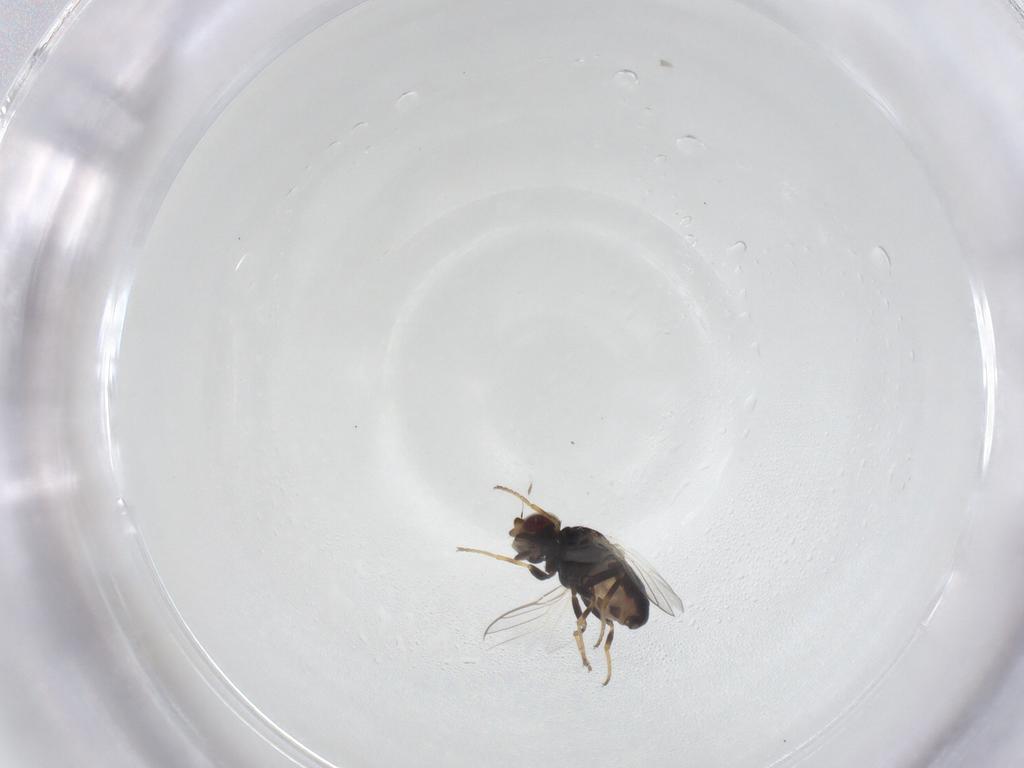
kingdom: Animalia
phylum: Arthropoda
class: Insecta
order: Diptera
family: Chloropidae
